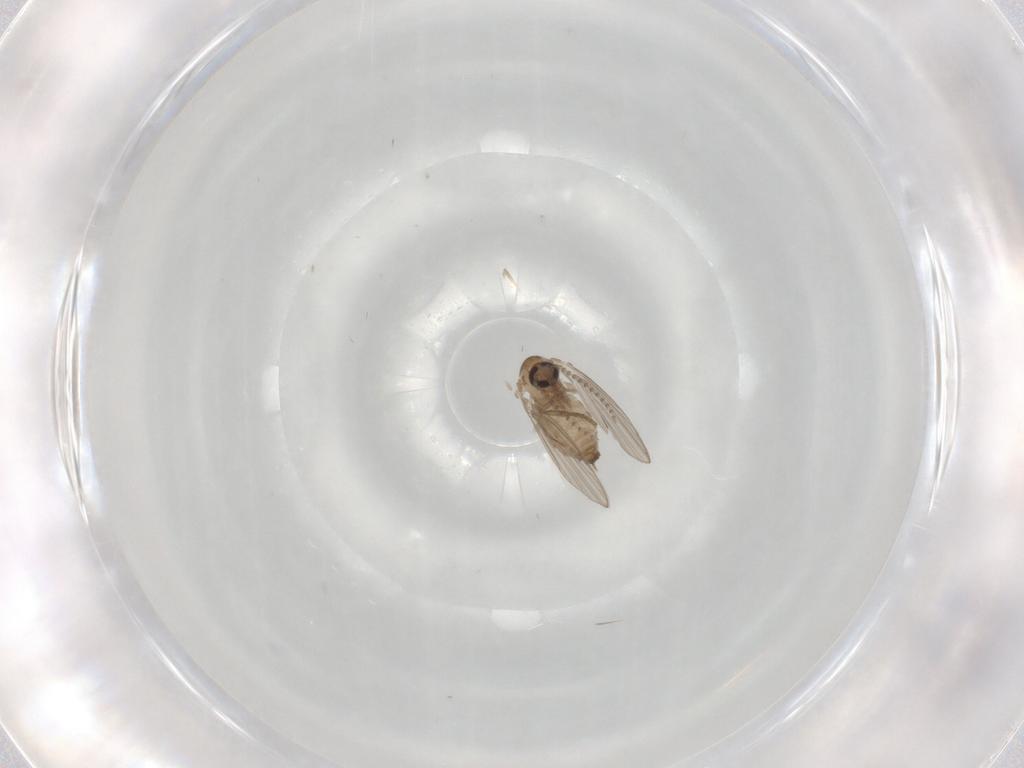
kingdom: Animalia
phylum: Arthropoda
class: Insecta
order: Diptera
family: Psychodidae
